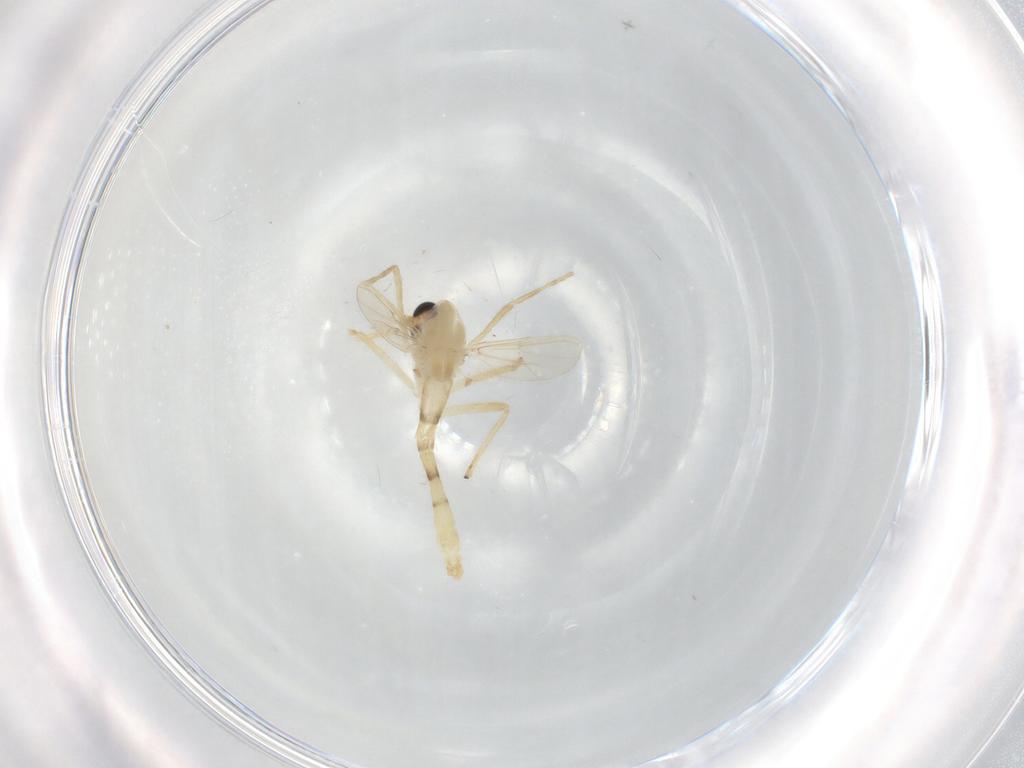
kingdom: Animalia
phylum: Arthropoda
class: Insecta
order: Diptera
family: Chironomidae
